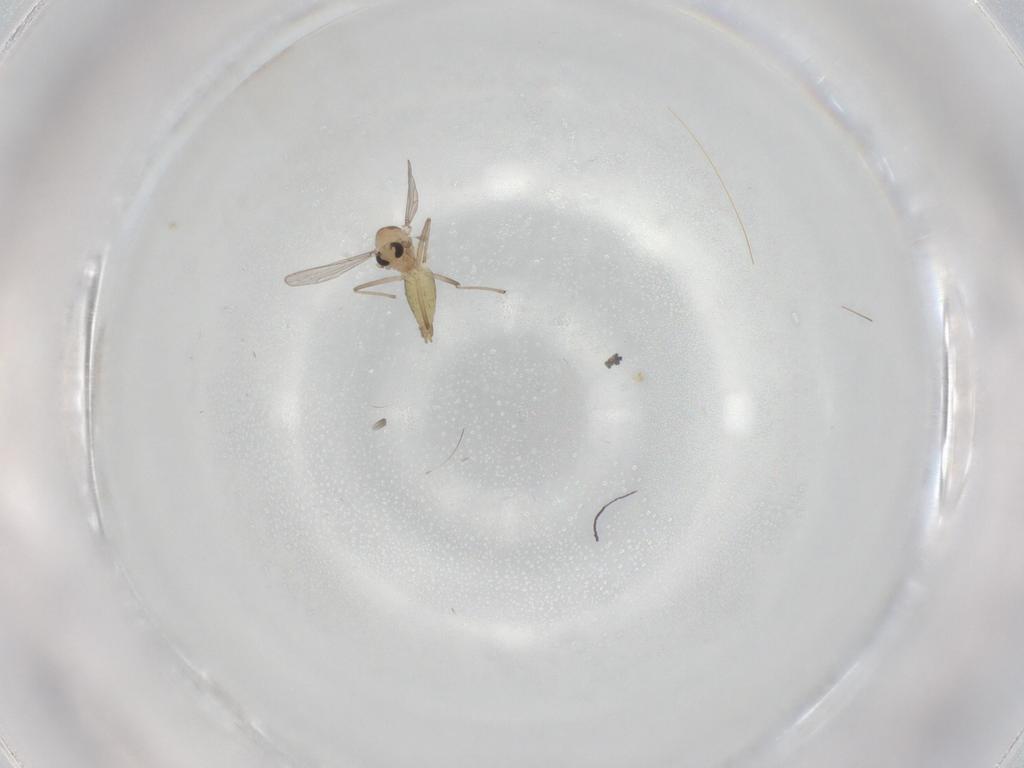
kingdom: Animalia
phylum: Arthropoda
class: Insecta
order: Diptera
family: Chironomidae
